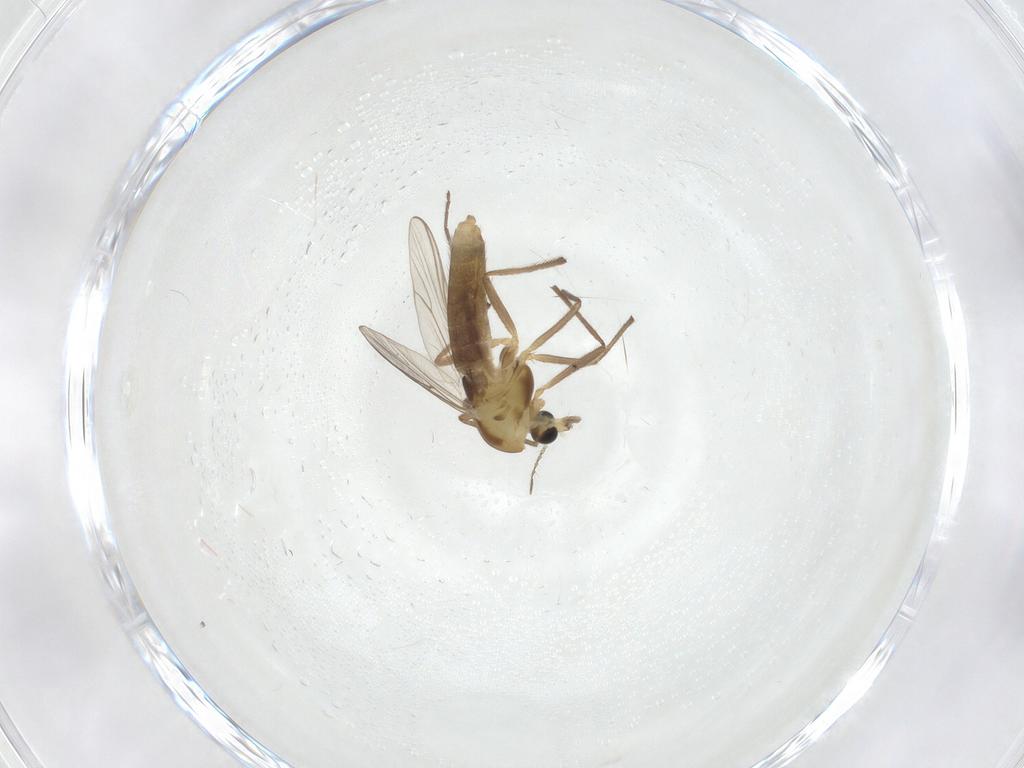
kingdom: Animalia
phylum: Arthropoda
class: Insecta
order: Diptera
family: Chironomidae
